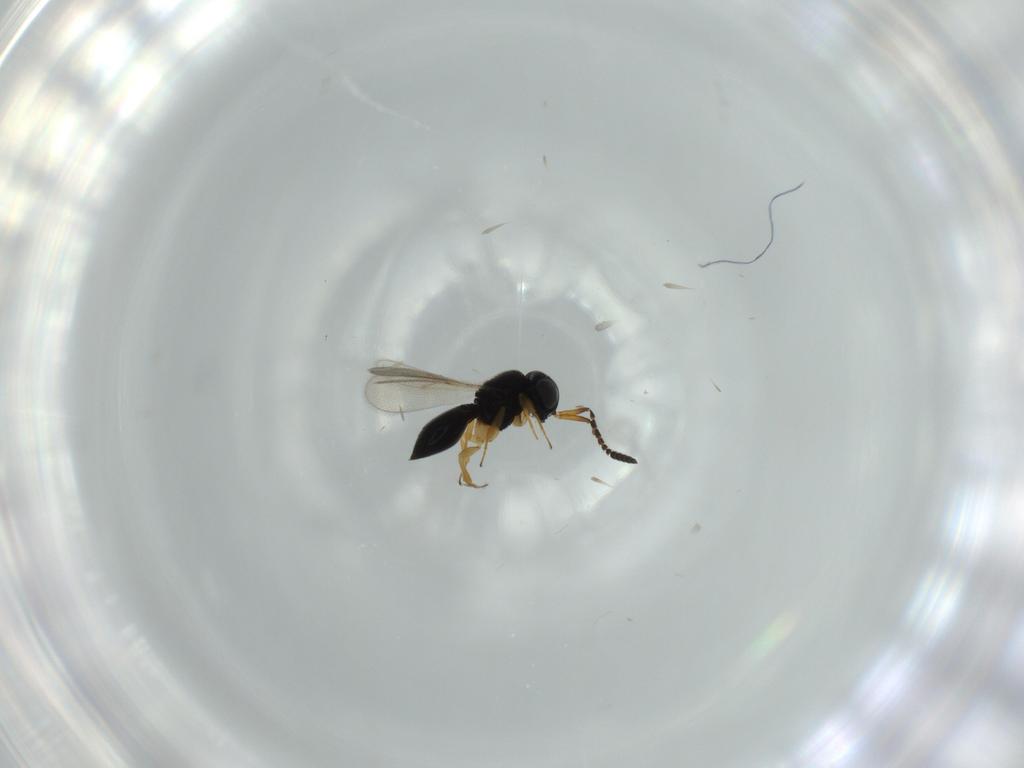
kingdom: Animalia
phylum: Arthropoda
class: Insecta
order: Hymenoptera
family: Scelionidae
